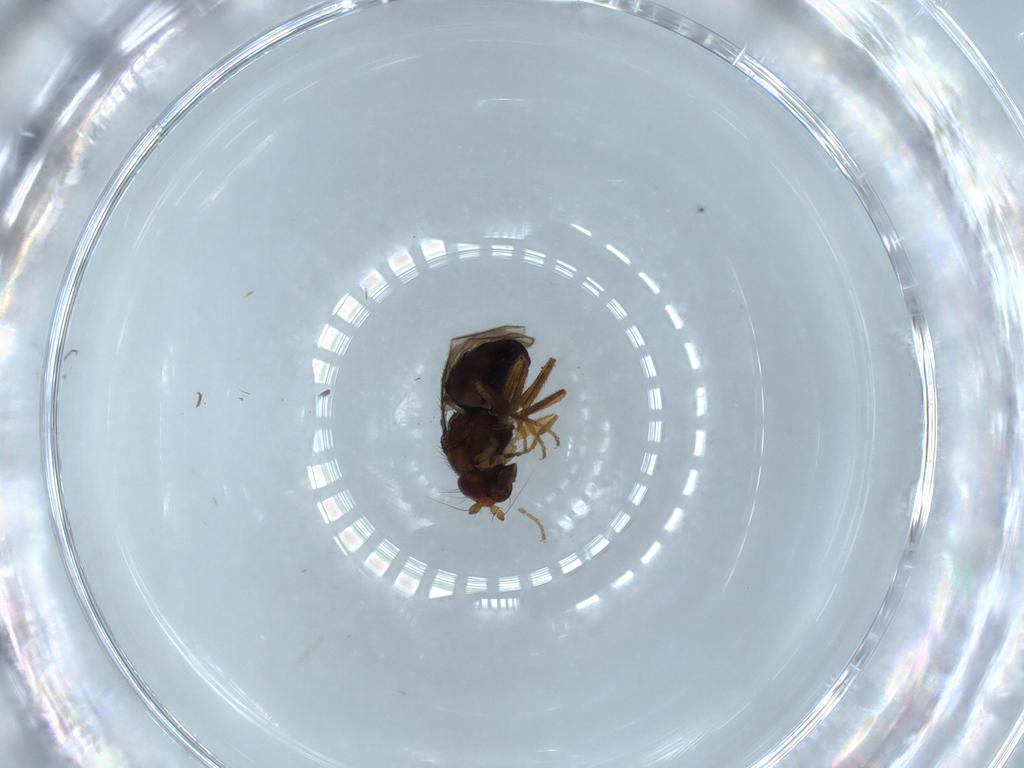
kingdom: Animalia
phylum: Arthropoda
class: Insecta
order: Diptera
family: Sphaeroceridae
